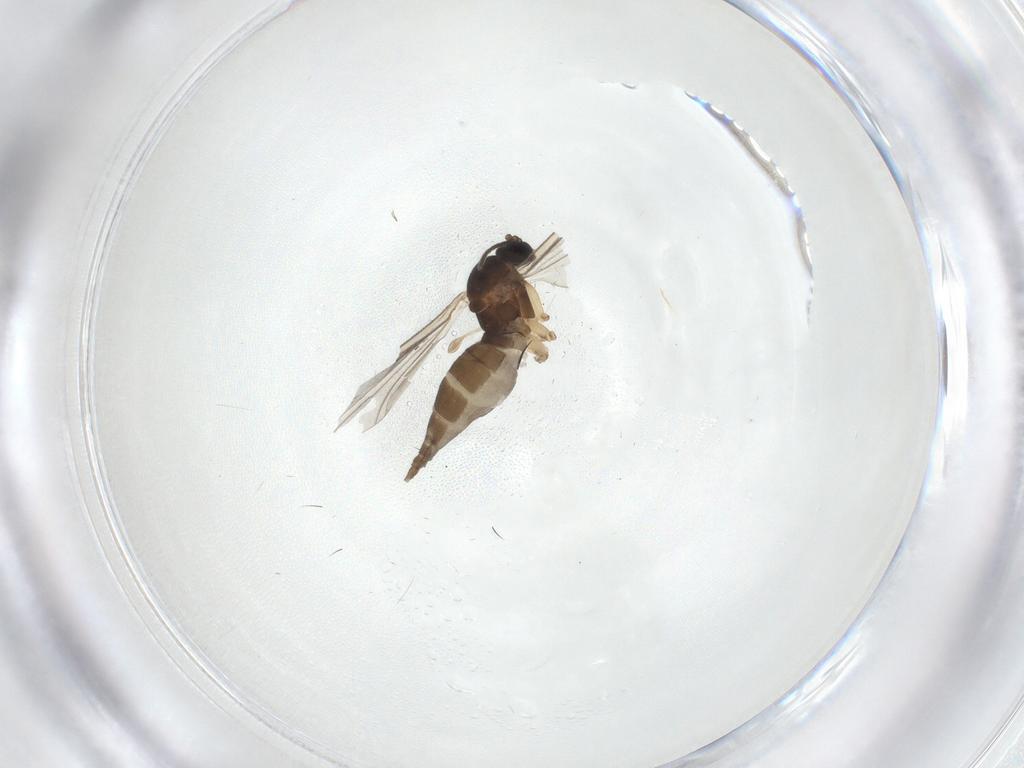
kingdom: Animalia
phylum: Arthropoda
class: Insecta
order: Diptera
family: Sciaridae
